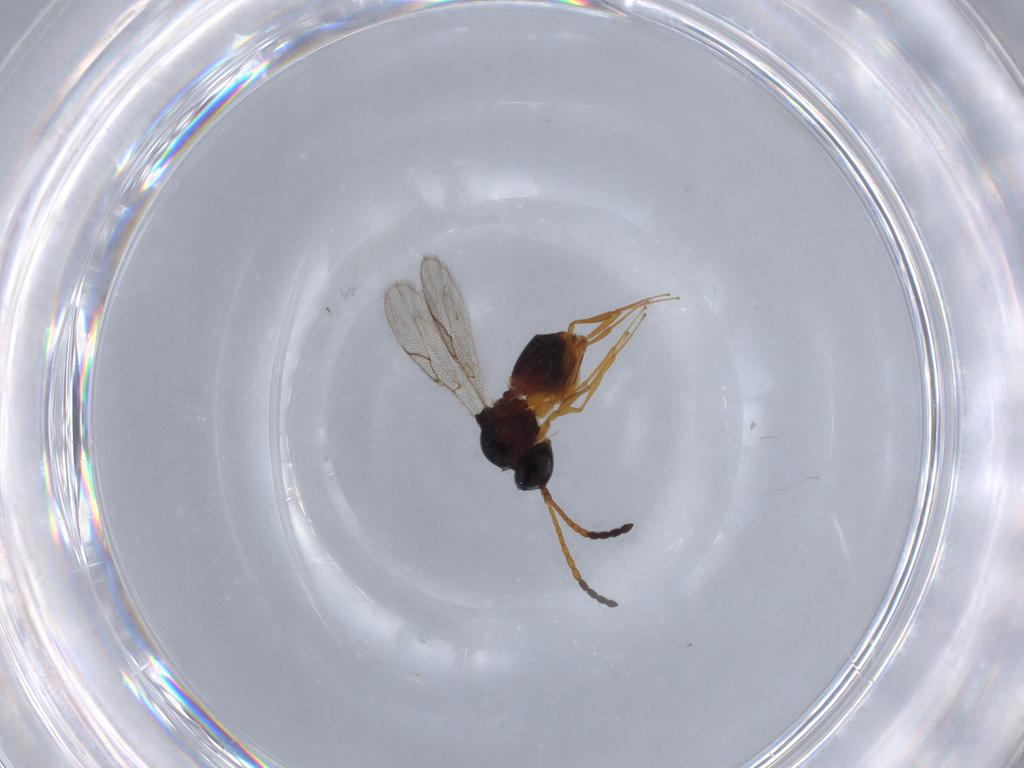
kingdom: Animalia
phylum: Arthropoda
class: Insecta
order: Hymenoptera
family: Figitidae
